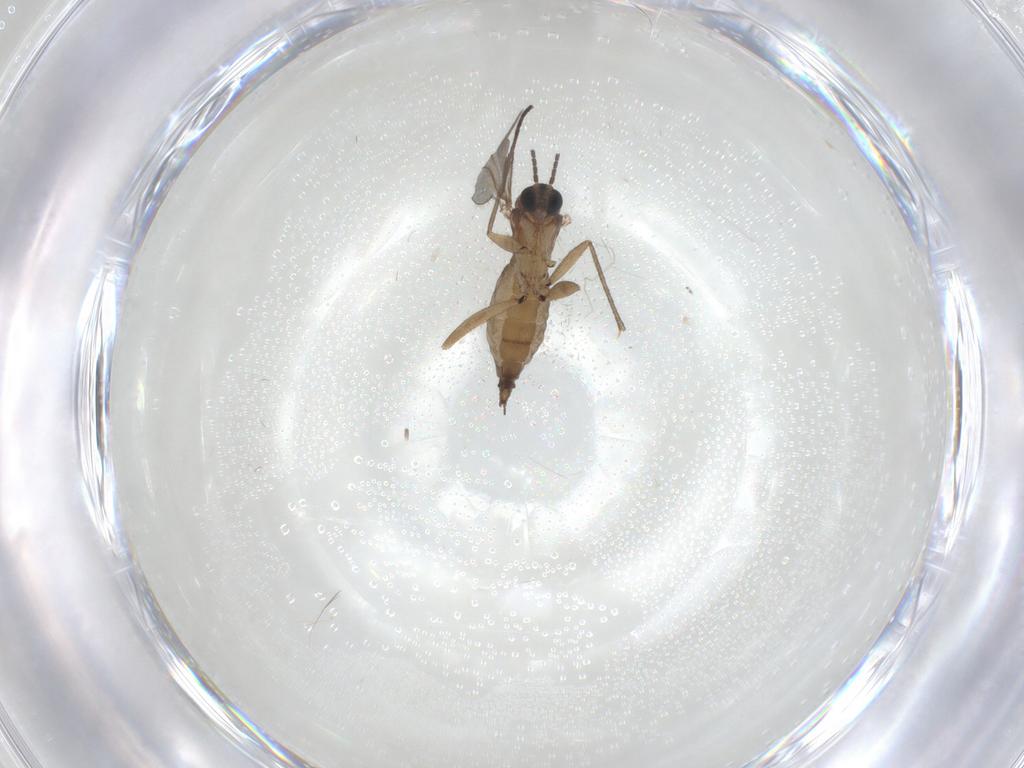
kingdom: Animalia
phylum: Arthropoda
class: Insecta
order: Diptera
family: Sciaridae
